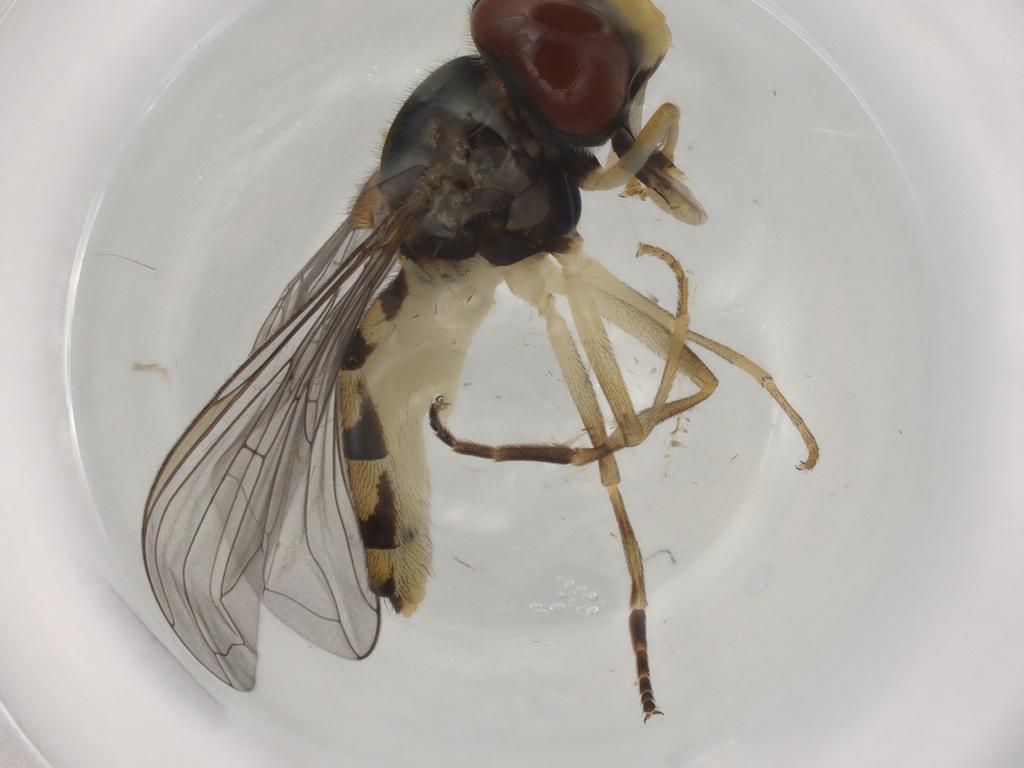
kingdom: Animalia
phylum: Arthropoda
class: Insecta
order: Diptera
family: Syrphidae
